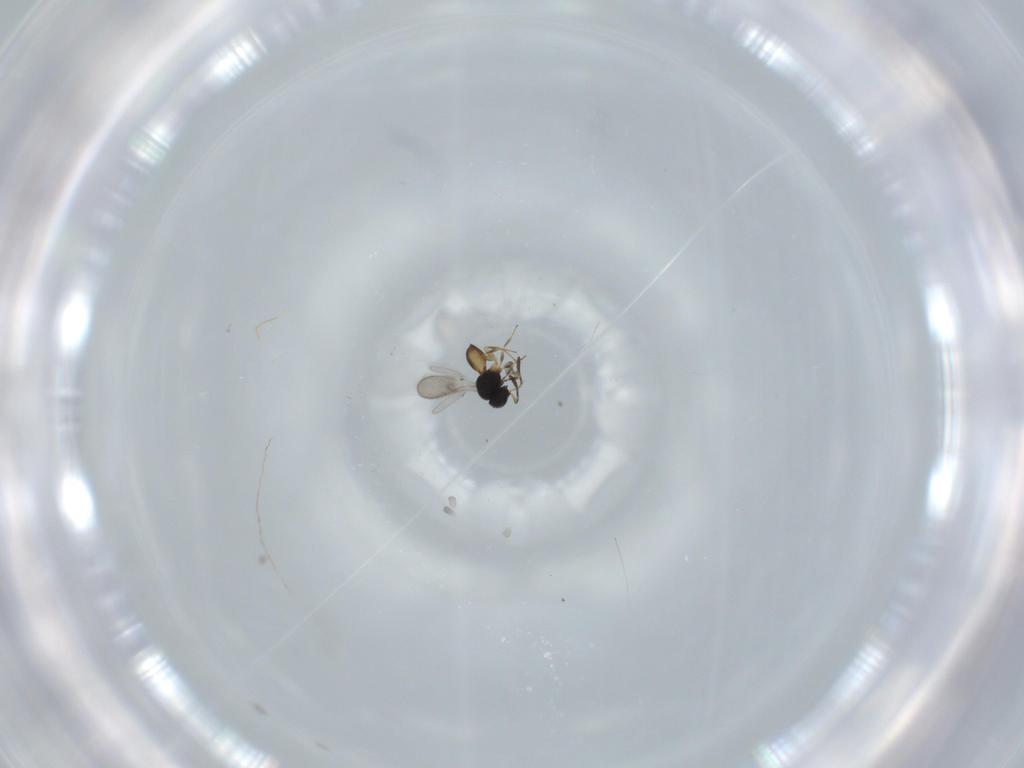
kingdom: Animalia
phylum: Arthropoda
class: Insecta
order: Hymenoptera
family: Scelionidae
